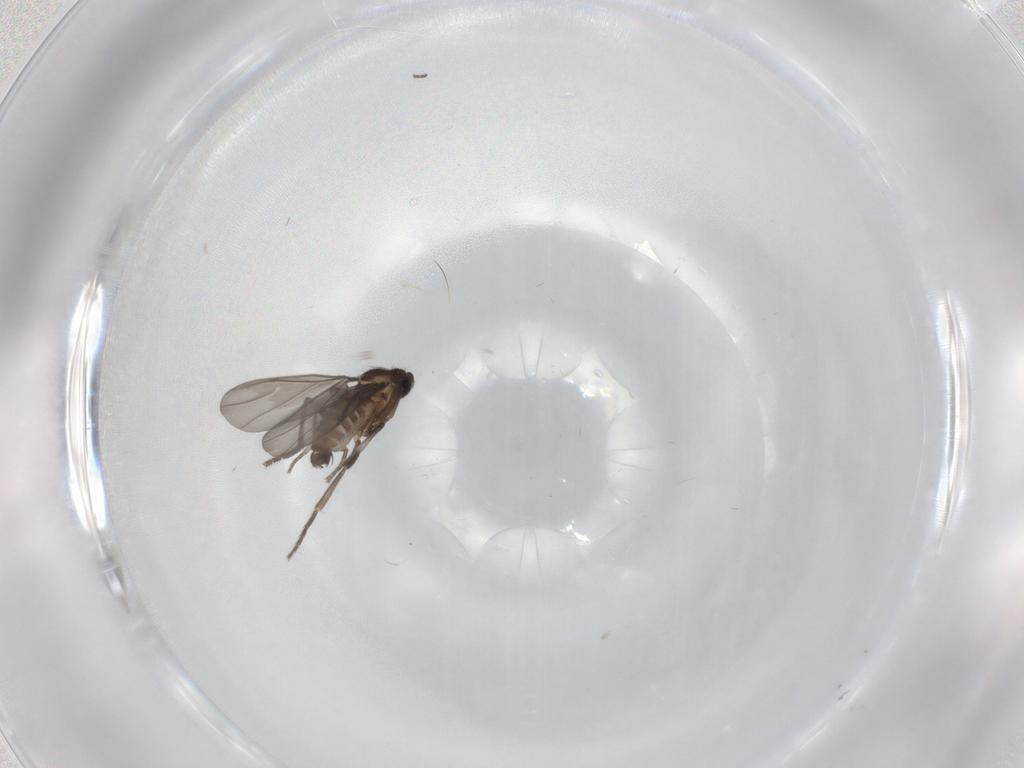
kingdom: Animalia
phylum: Arthropoda
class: Insecta
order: Diptera
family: Phoridae
